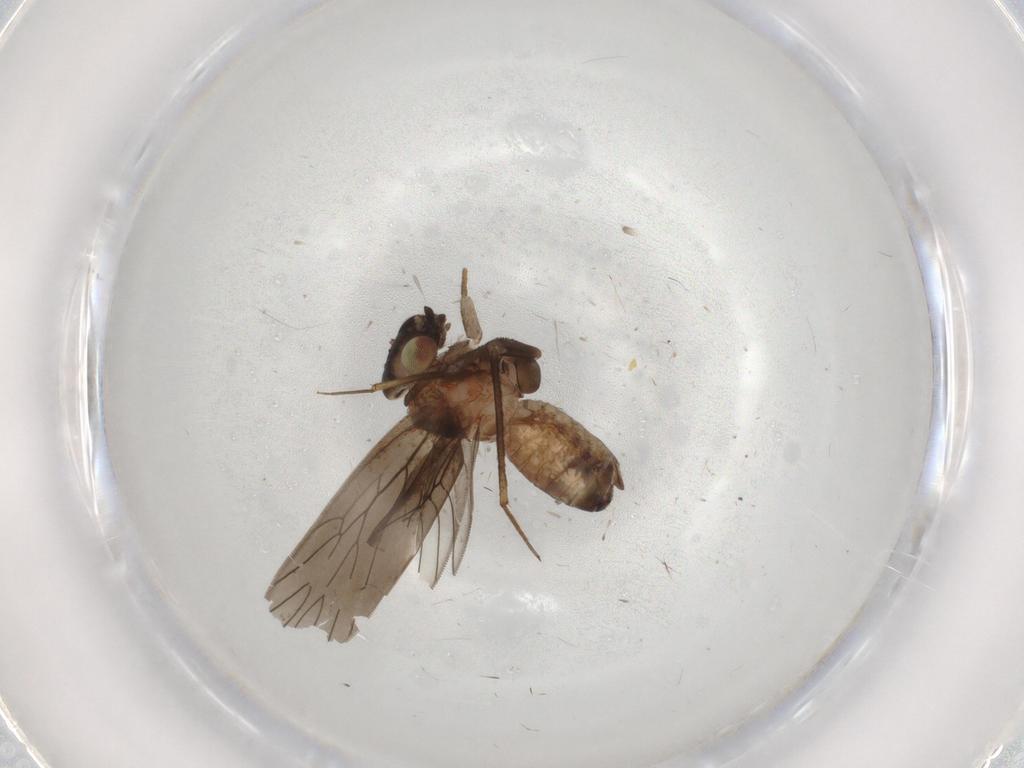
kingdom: Animalia
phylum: Arthropoda
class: Insecta
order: Psocodea
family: Lepidopsocidae
